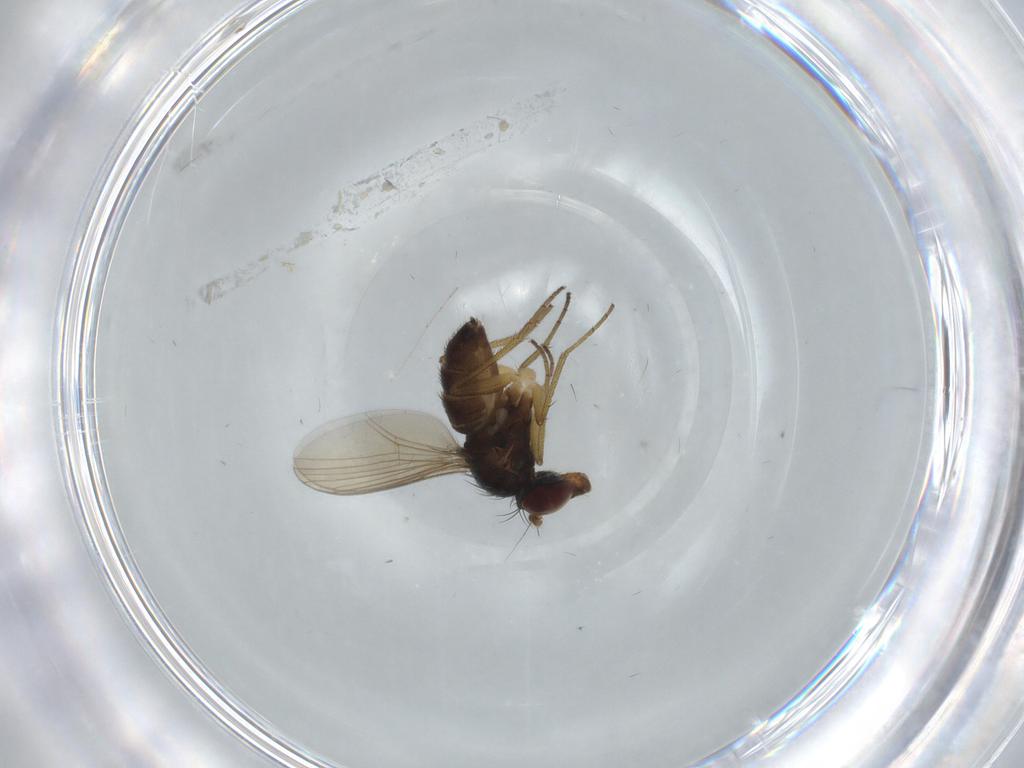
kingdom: Animalia
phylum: Arthropoda
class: Insecta
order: Diptera
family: Dolichopodidae
